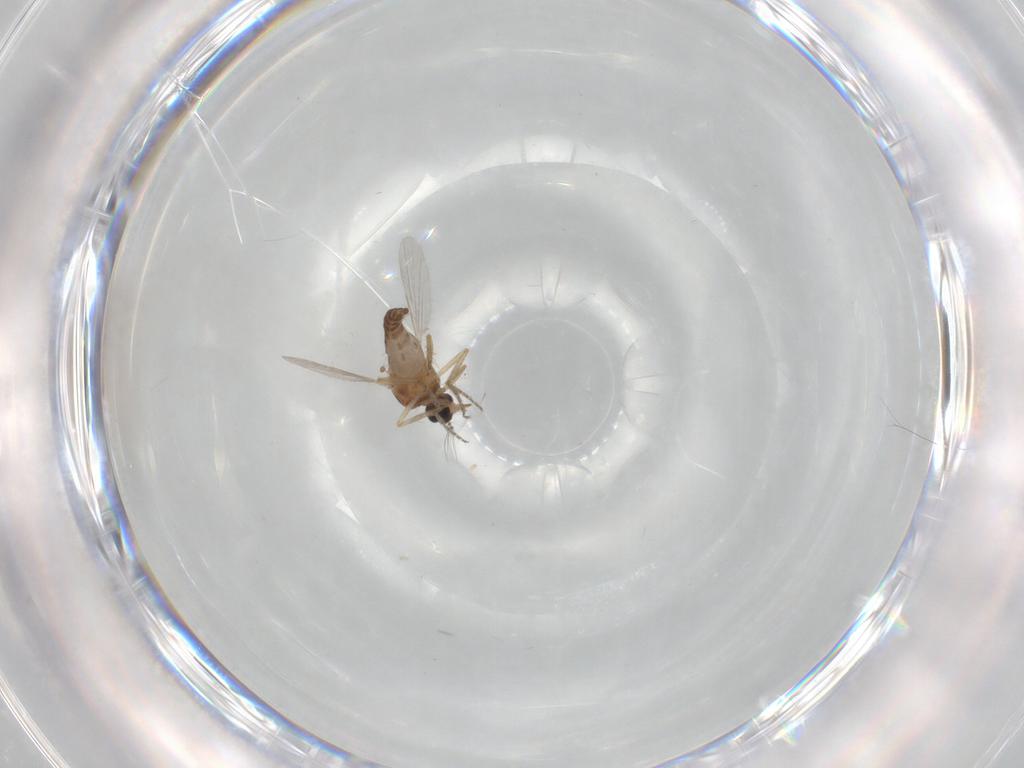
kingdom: Animalia
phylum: Arthropoda
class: Insecta
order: Diptera
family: Ceratopogonidae
